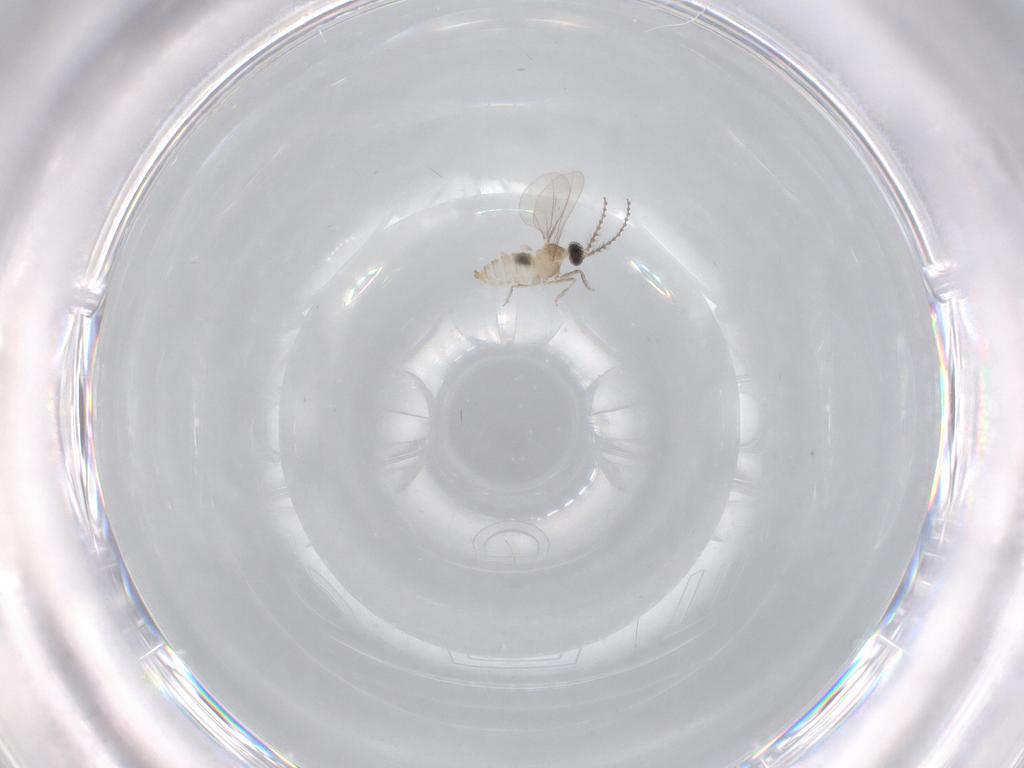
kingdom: Animalia
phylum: Arthropoda
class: Insecta
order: Diptera
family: Cecidomyiidae
